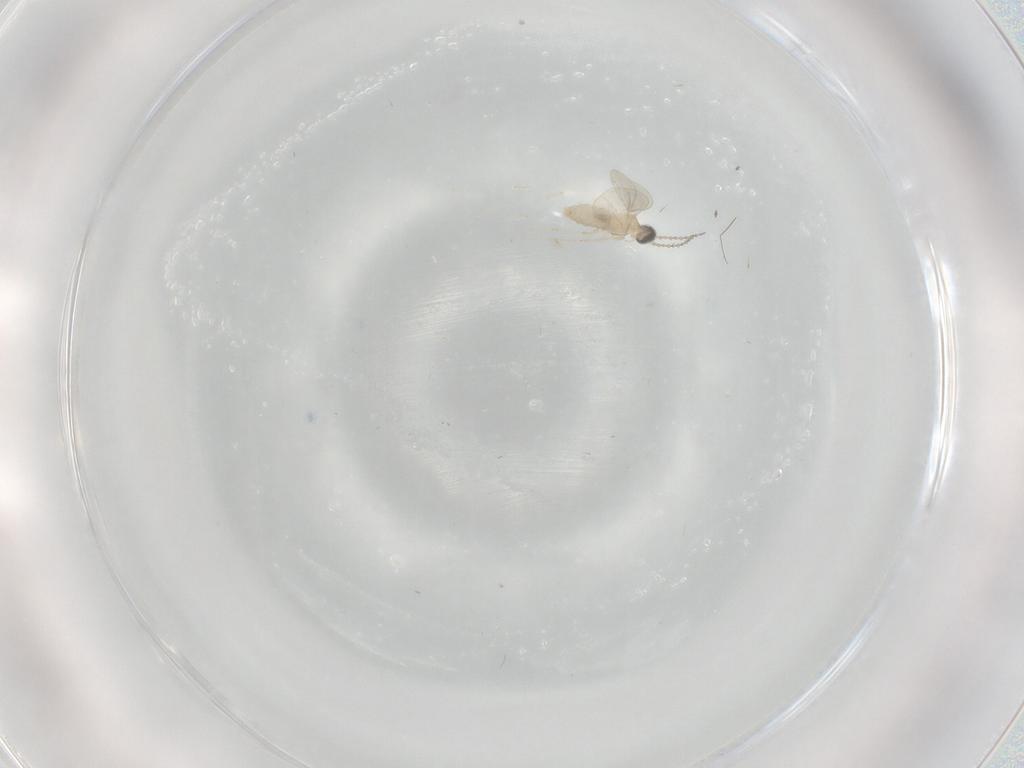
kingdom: Animalia
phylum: Arthropoda
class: Insecta
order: Diptera
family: Cecidomyiidae
